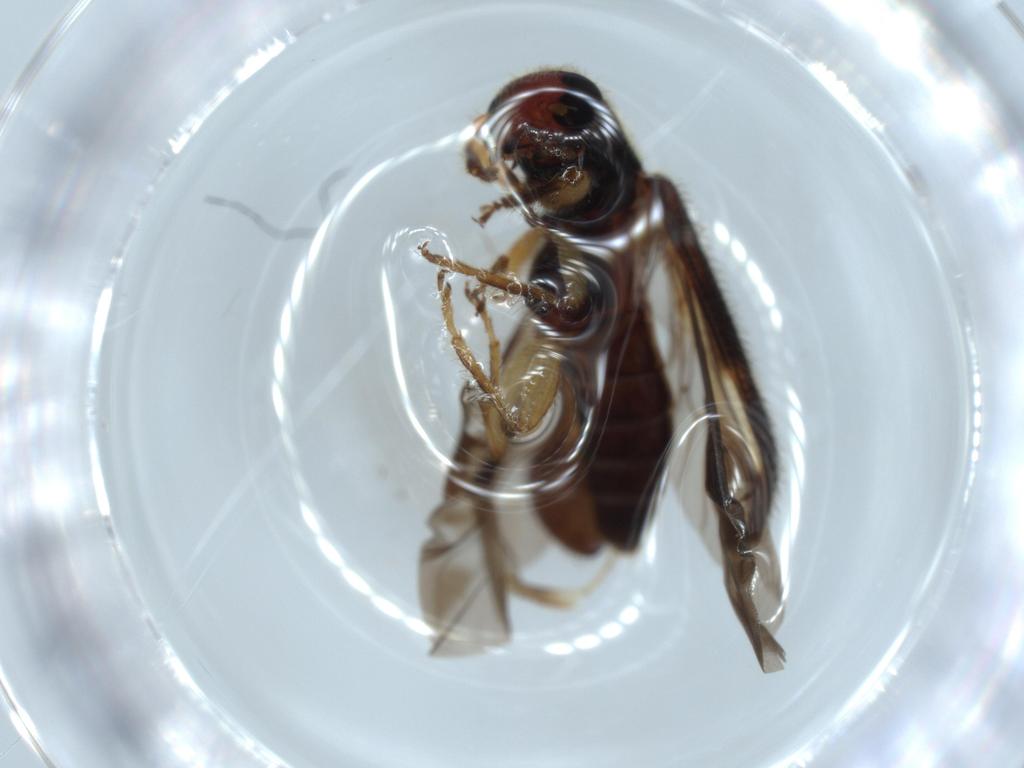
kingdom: Animalia
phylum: Arthropoda
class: Insecta
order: Coleoptera
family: Cleridae
